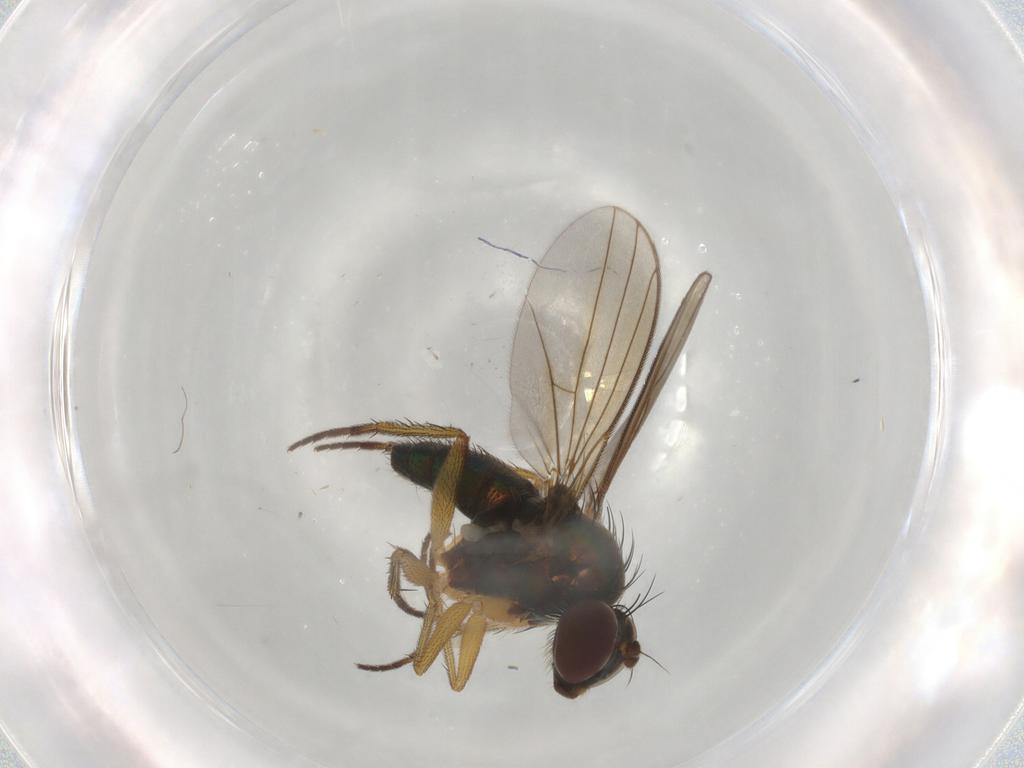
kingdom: Animalia
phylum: Arthropoda
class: Insecta
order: Diptera
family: Dolichopodidae
